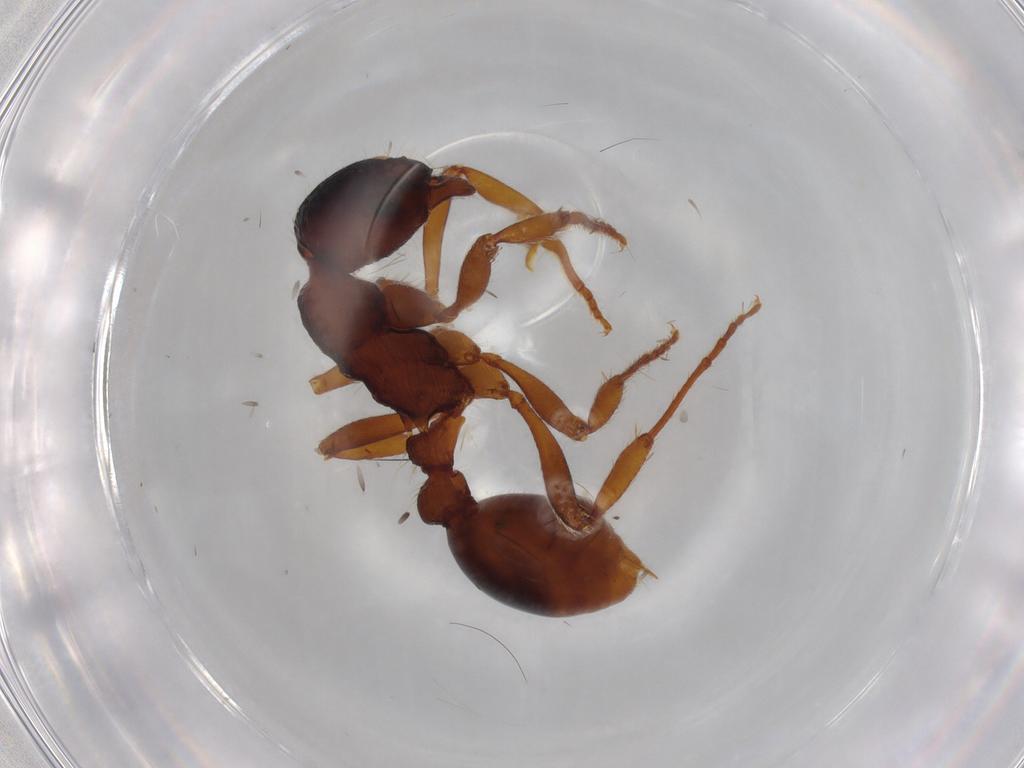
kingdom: Animalia
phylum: Arthropoda
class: Insecta
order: Hymenoptera
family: Formicidae
